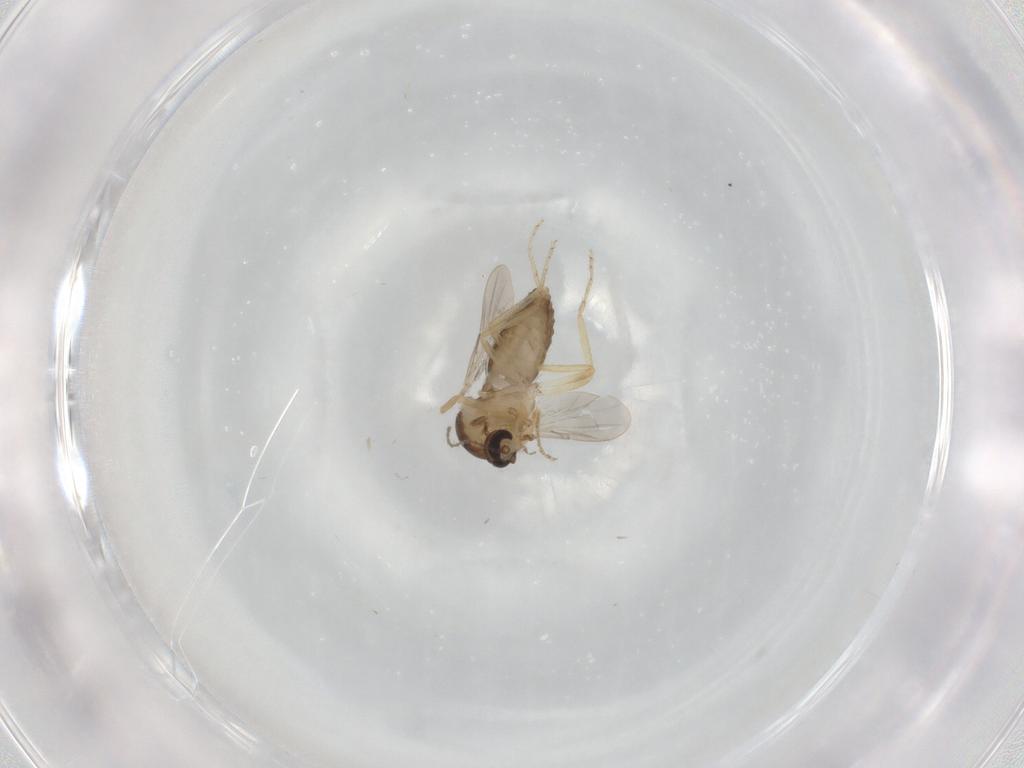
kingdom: Animalia
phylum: Arthropoda
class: Insecta
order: Diptera
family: Ceratopogonidae
